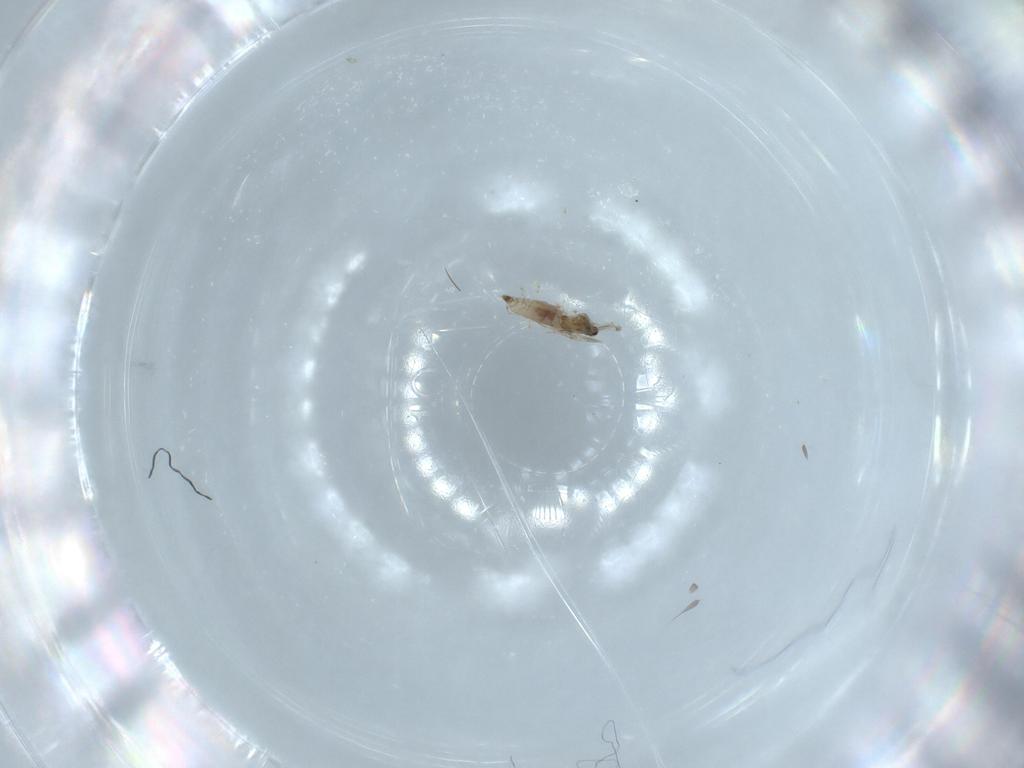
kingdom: Animalia
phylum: Arthropoda
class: Insecta
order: Diptera
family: Cecidomyiidae
